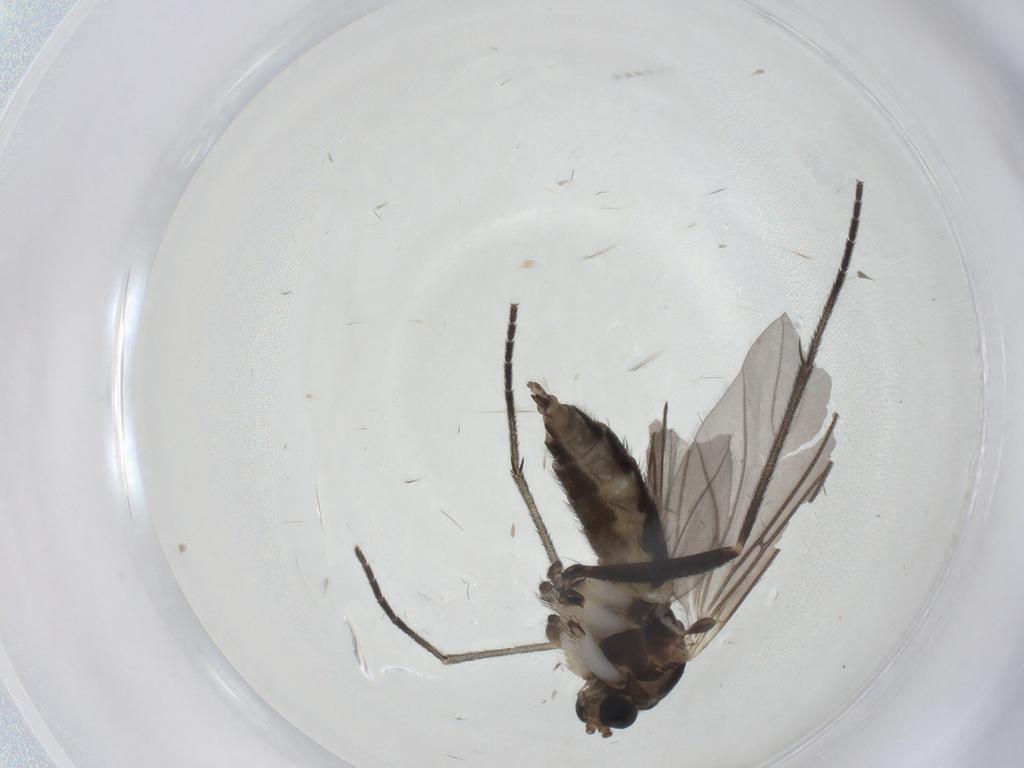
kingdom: Animalia
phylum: Arthropoda
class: Insecta
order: Diptera
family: Sciaridae
